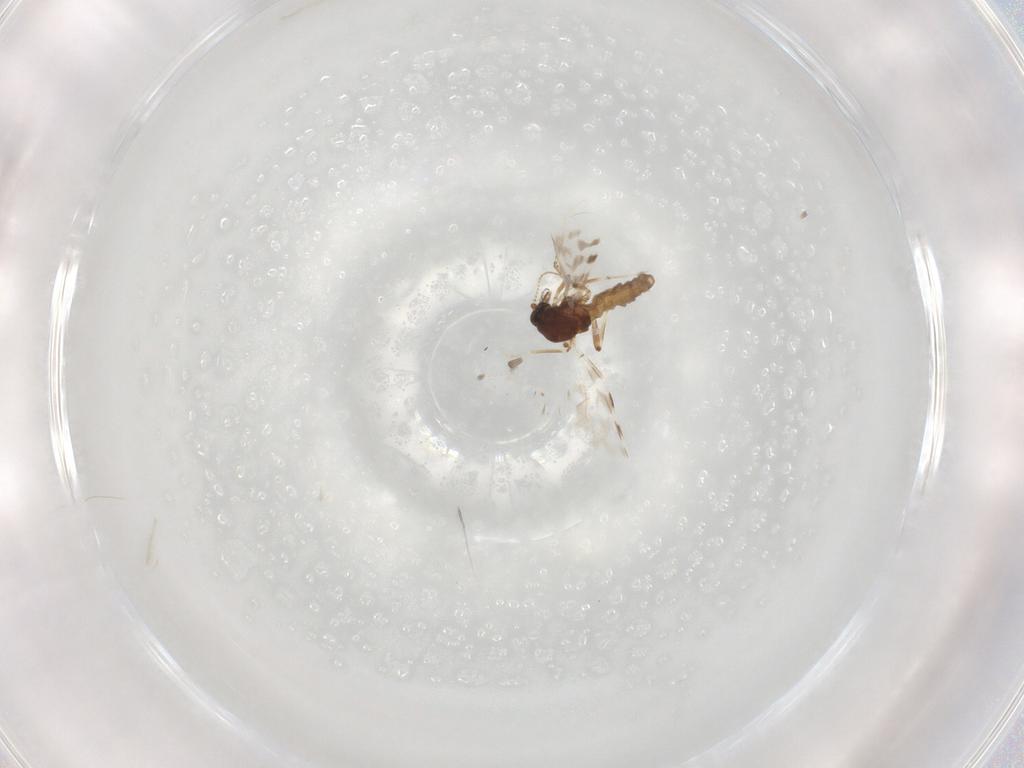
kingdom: Animalia
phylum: Arthropoda
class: Insecta
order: Diptera
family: Ceratopogonidae
